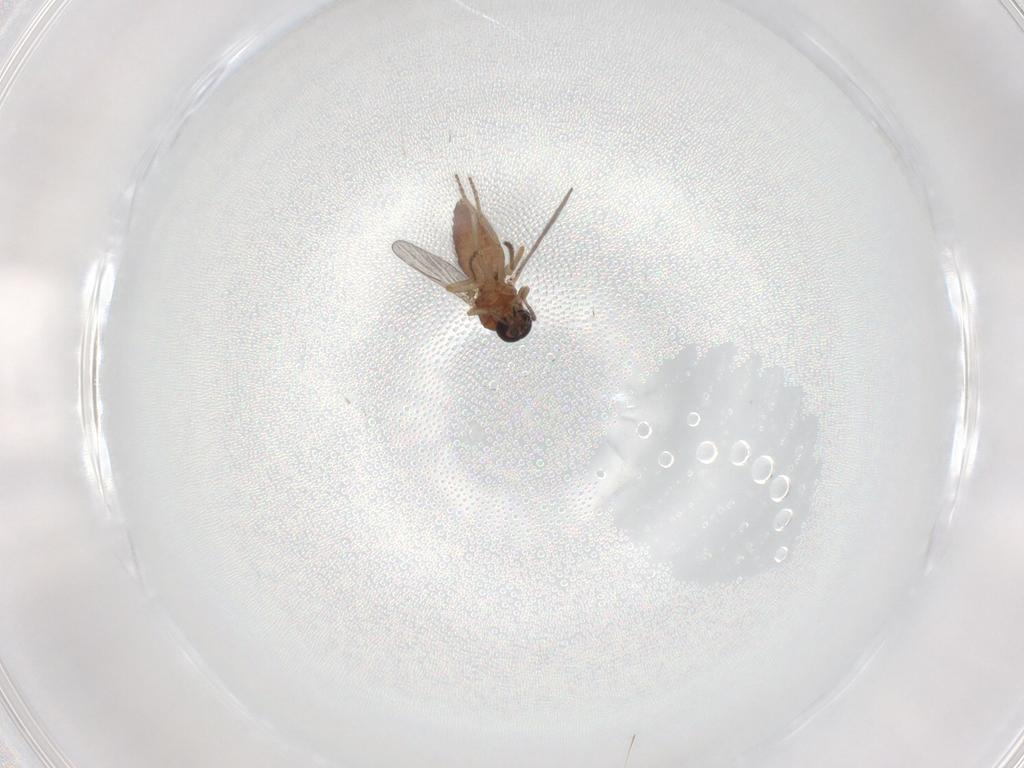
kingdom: Animalia
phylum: Arthropoda
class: Insecta
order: Diptera
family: Ceratopogonidae
